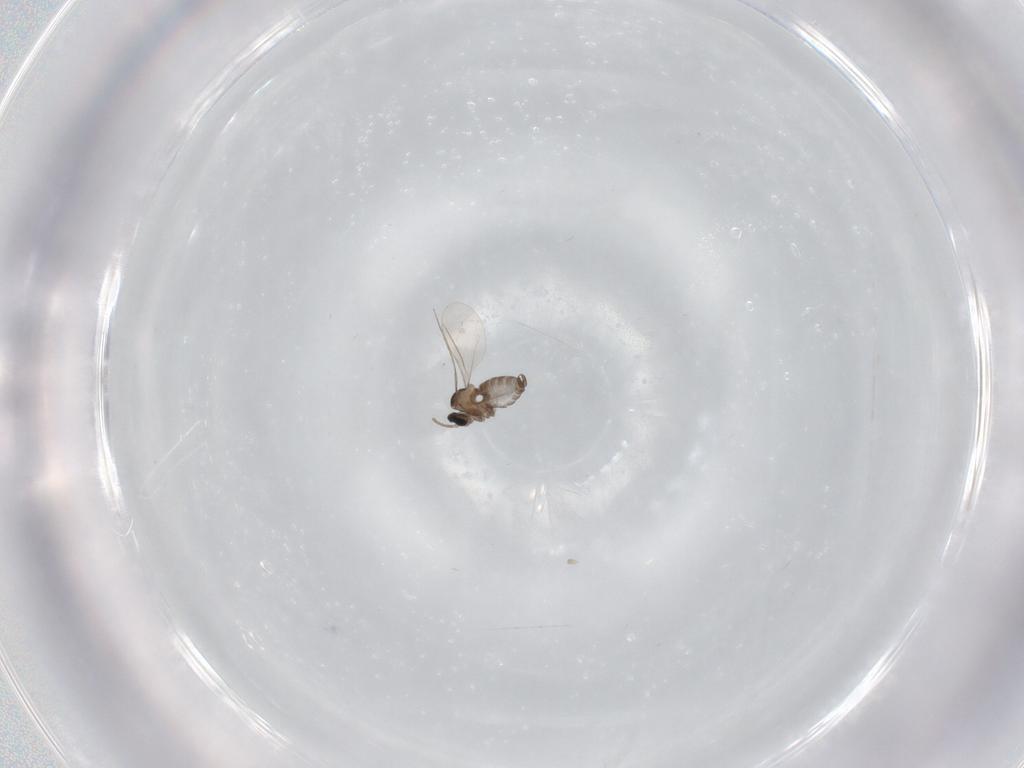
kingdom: Animalia
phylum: Arthropoda
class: Insecta
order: Diptera
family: Cecidomyiidae
